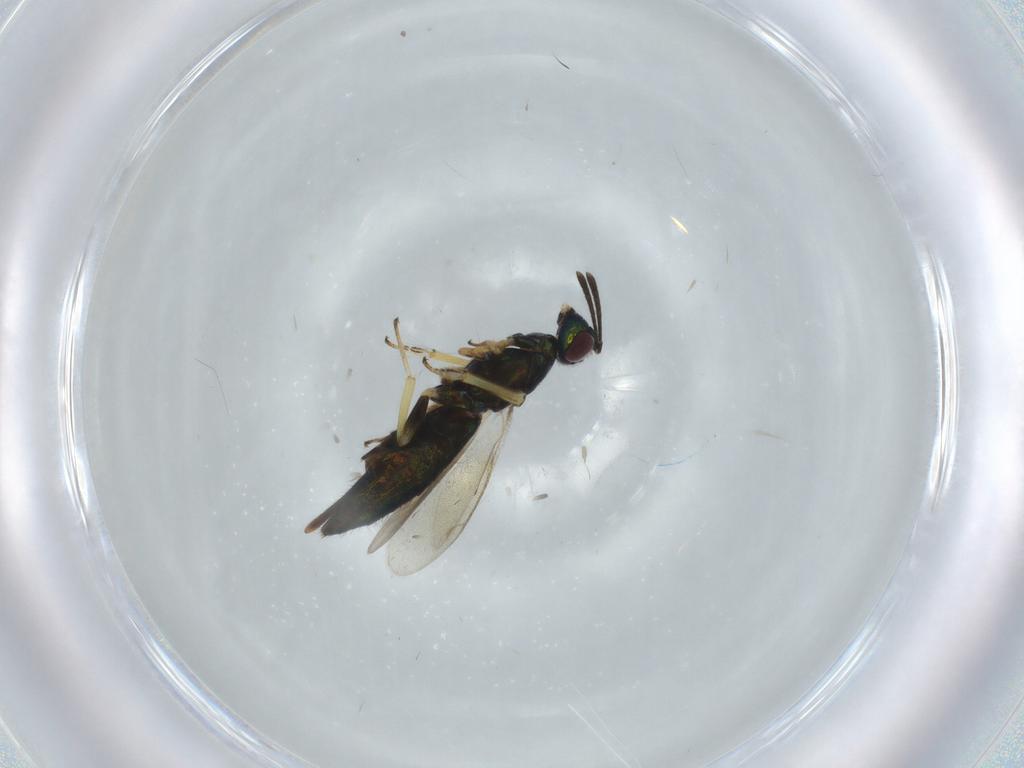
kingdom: Animalia
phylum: Arthropoda
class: Insecta
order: Hymenoptera
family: Eupelmidae
